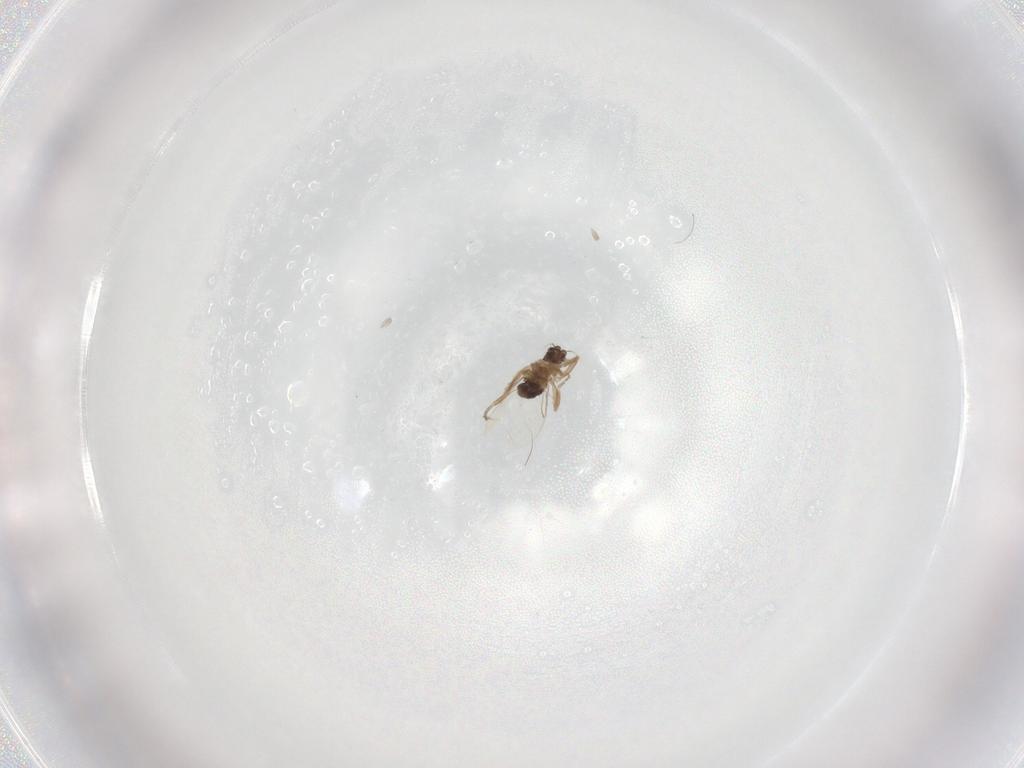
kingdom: Animalia
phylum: Arthropoda
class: Insecta
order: Diptera
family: Phoridae
